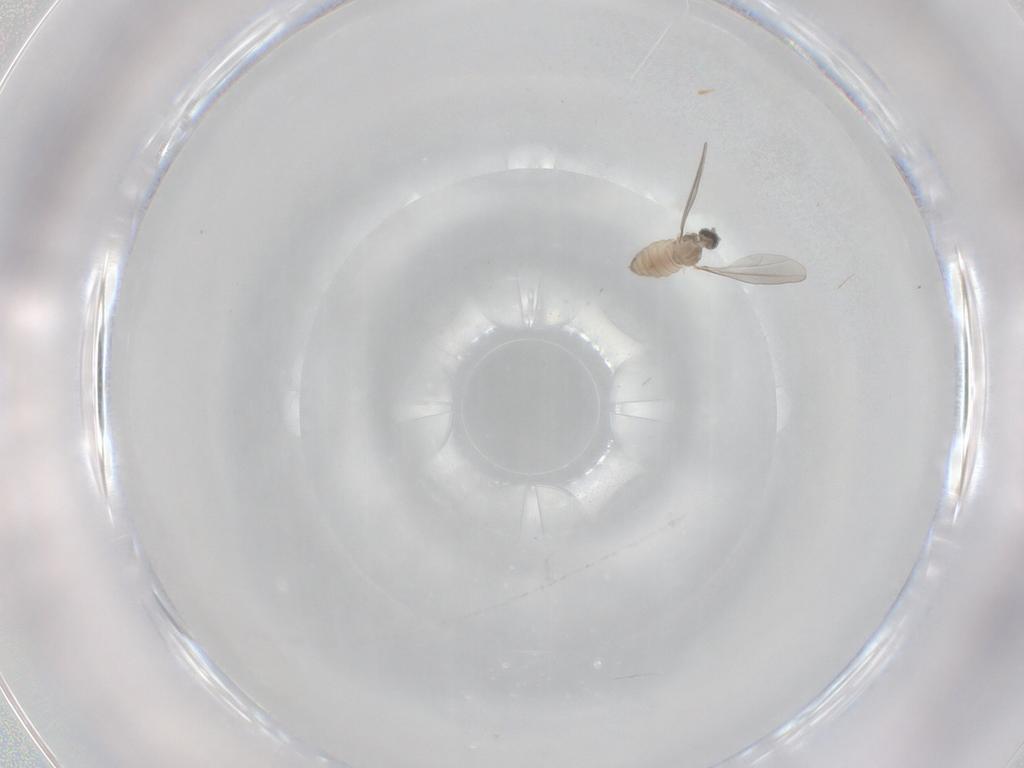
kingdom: Animalia
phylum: Arthropoda
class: Insecta
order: Diptera
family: Cecidomyiidae
